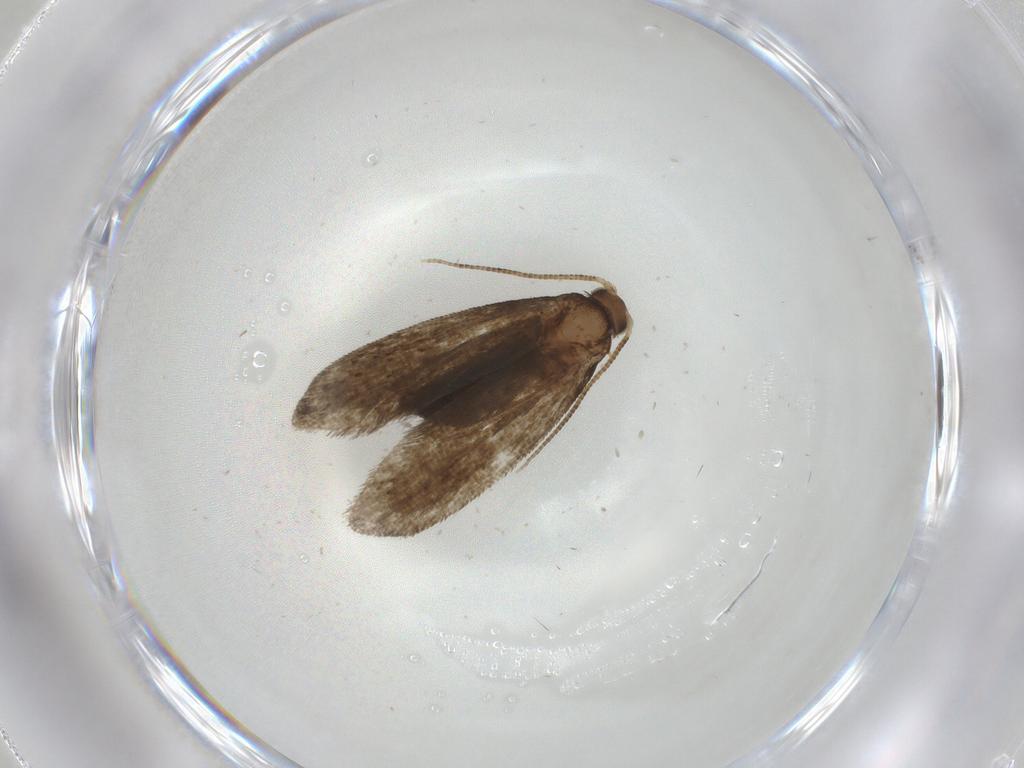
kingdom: Animalia
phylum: Arthropoda
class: Insecta
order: Lepidoptera
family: Tineidae
